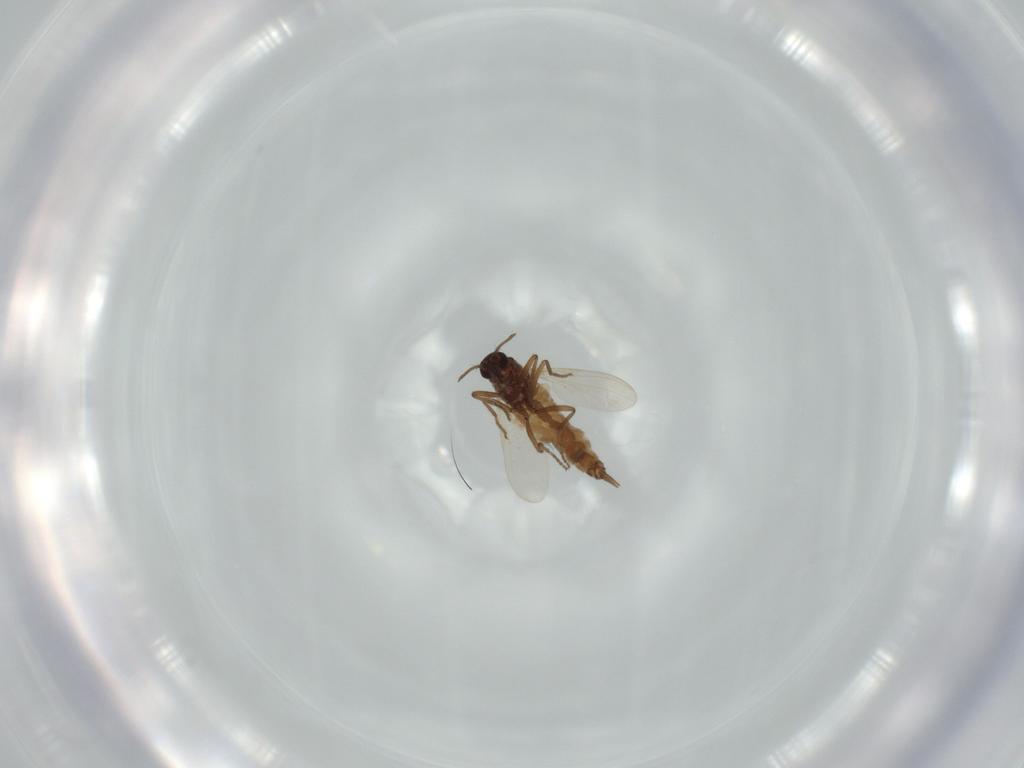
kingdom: Animalia
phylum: Arthropoda
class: Insecta
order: Diptera
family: Ceratopogonidae
